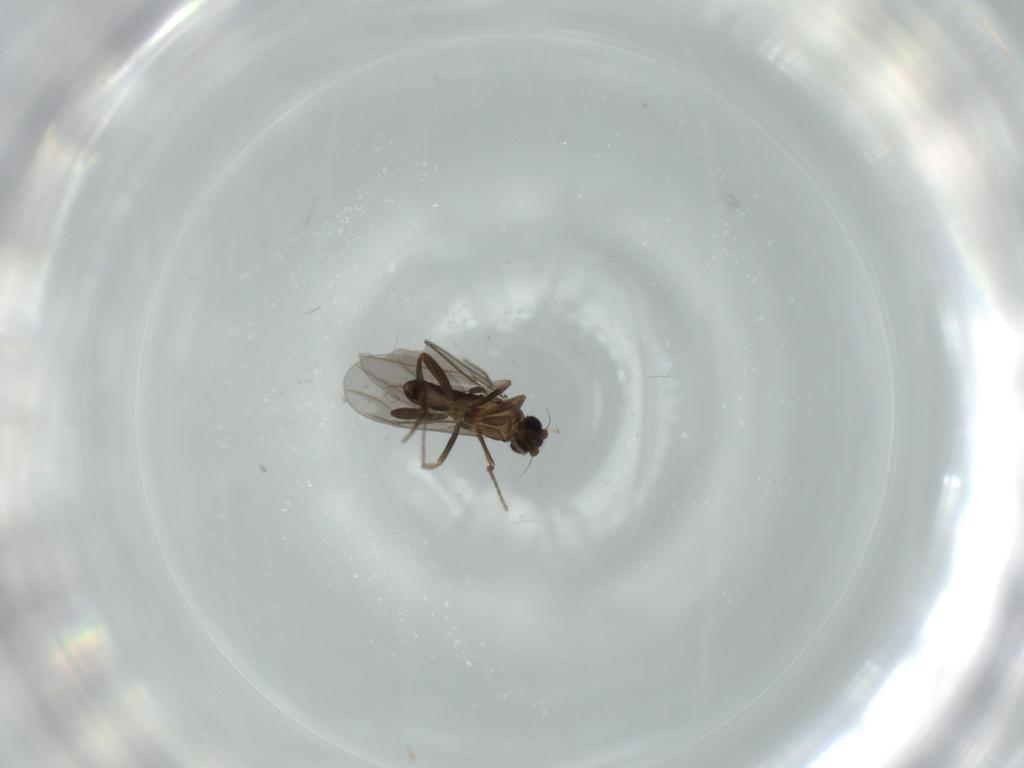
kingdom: Animalia
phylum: Arthropoda
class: Insecta
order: Diptera
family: Phoridae
